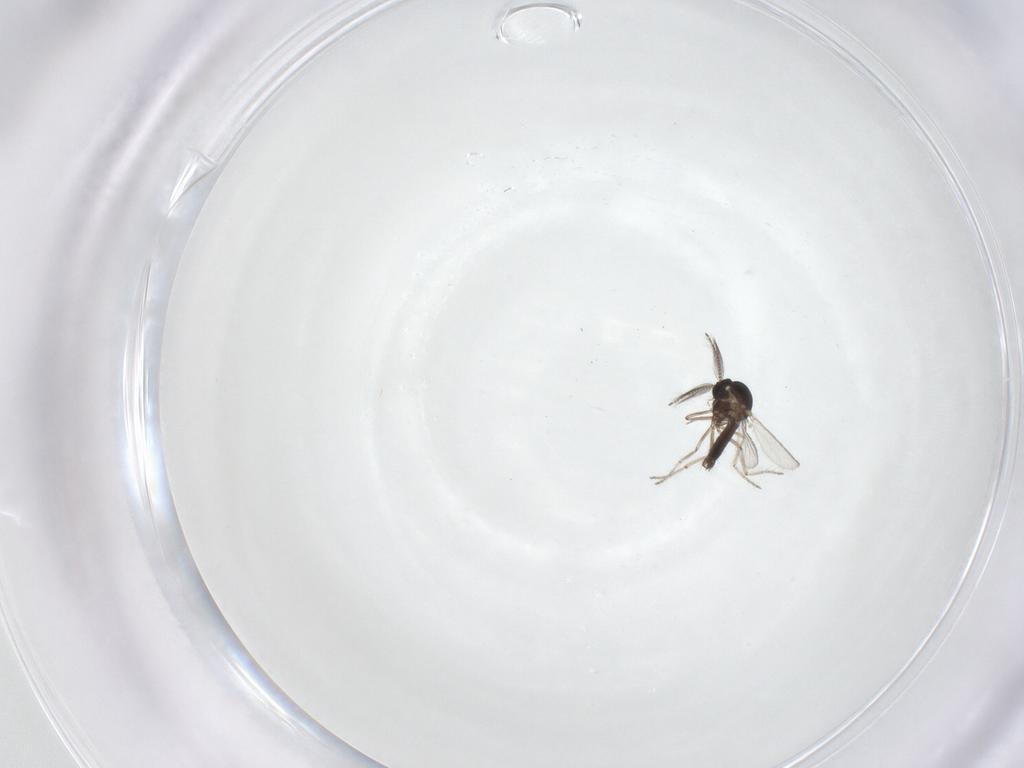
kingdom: Animalia
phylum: Arthropoda
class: Insecta
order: Diptera
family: Ceratopogonidae
